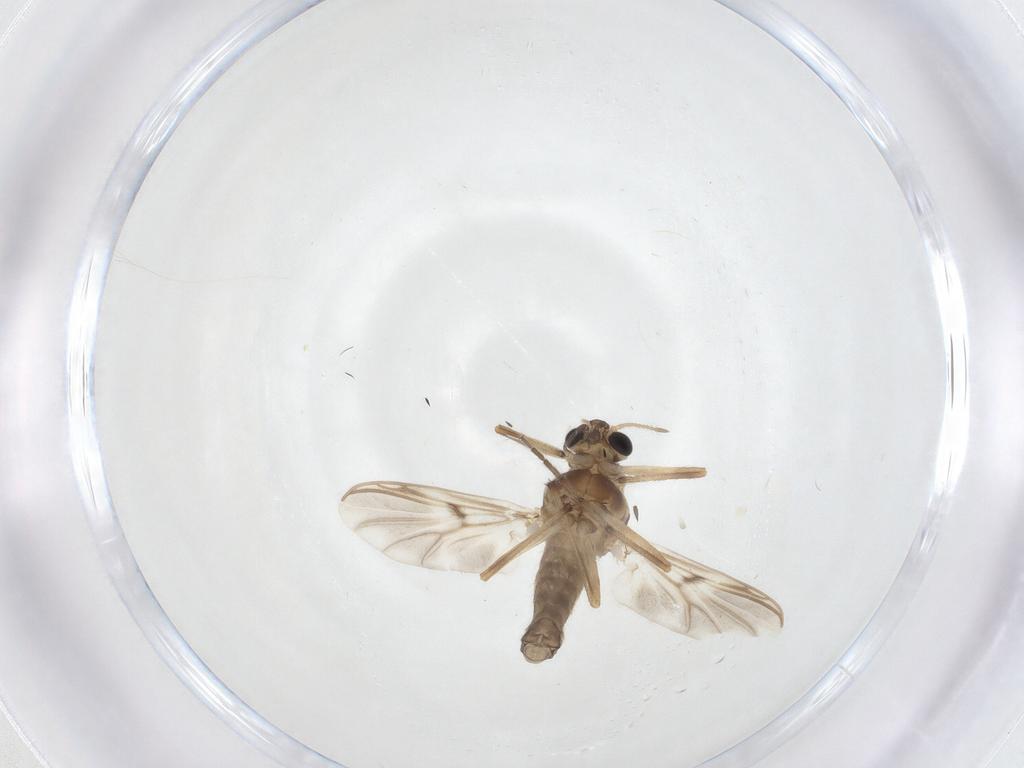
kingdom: Animalia
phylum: Arthropoda
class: Insecta
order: Diptera
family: Chironomidae
